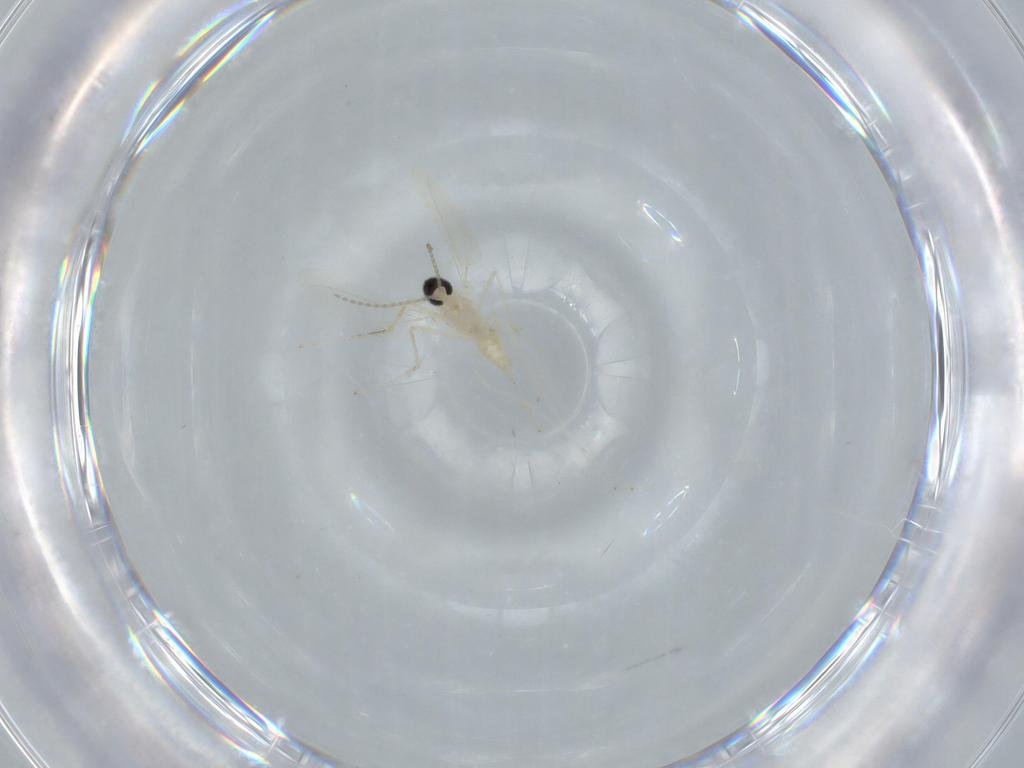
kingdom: Animalia
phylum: Arthropoda
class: Insecta
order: Diptera
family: Cecidomyiidae
